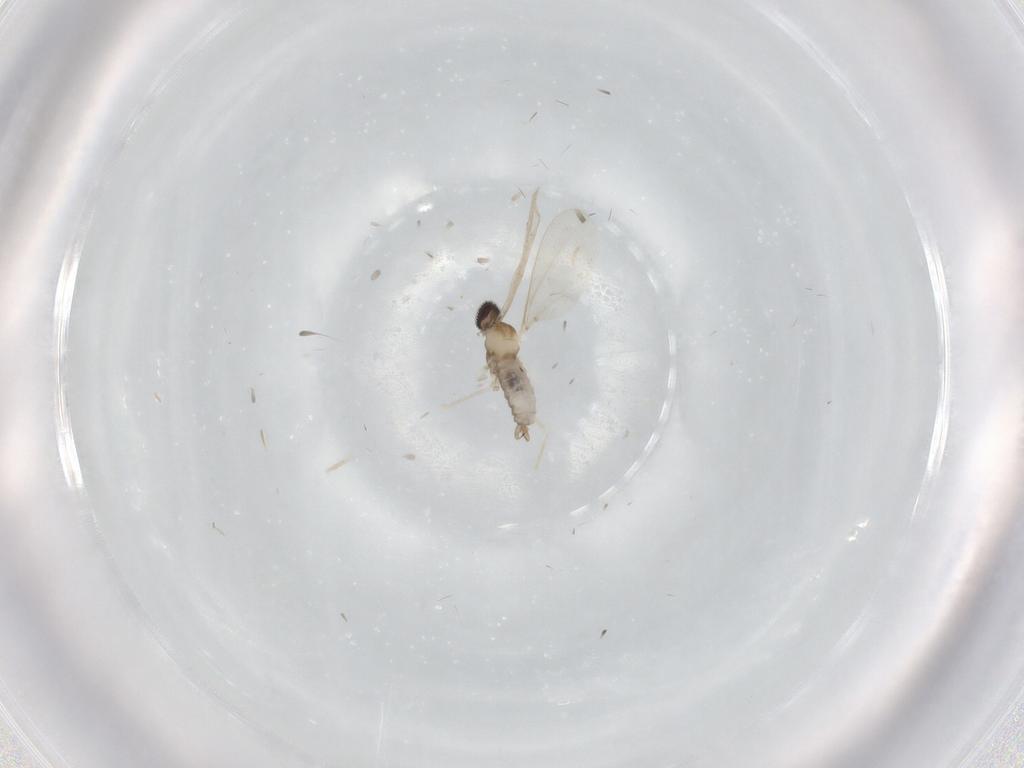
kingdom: Animalia
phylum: Arthropoda
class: Insecta
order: Diptera
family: Cecidomyiidae
